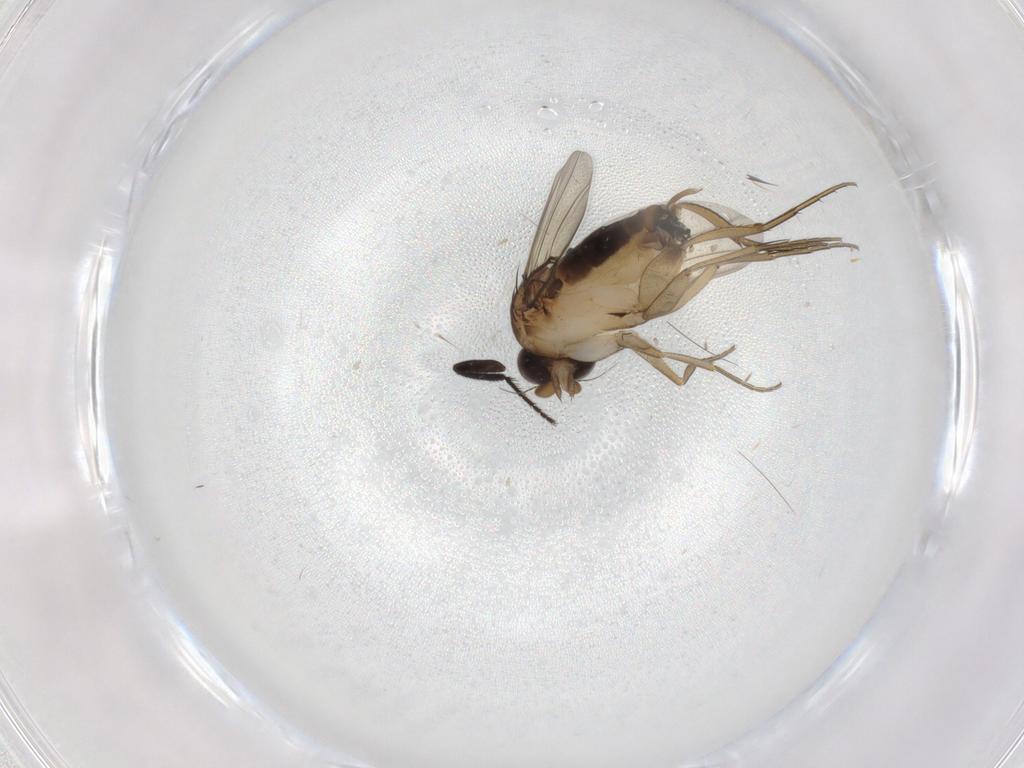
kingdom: Animalia
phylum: Arthropoda
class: Insecta
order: Diptera
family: Phoridae
